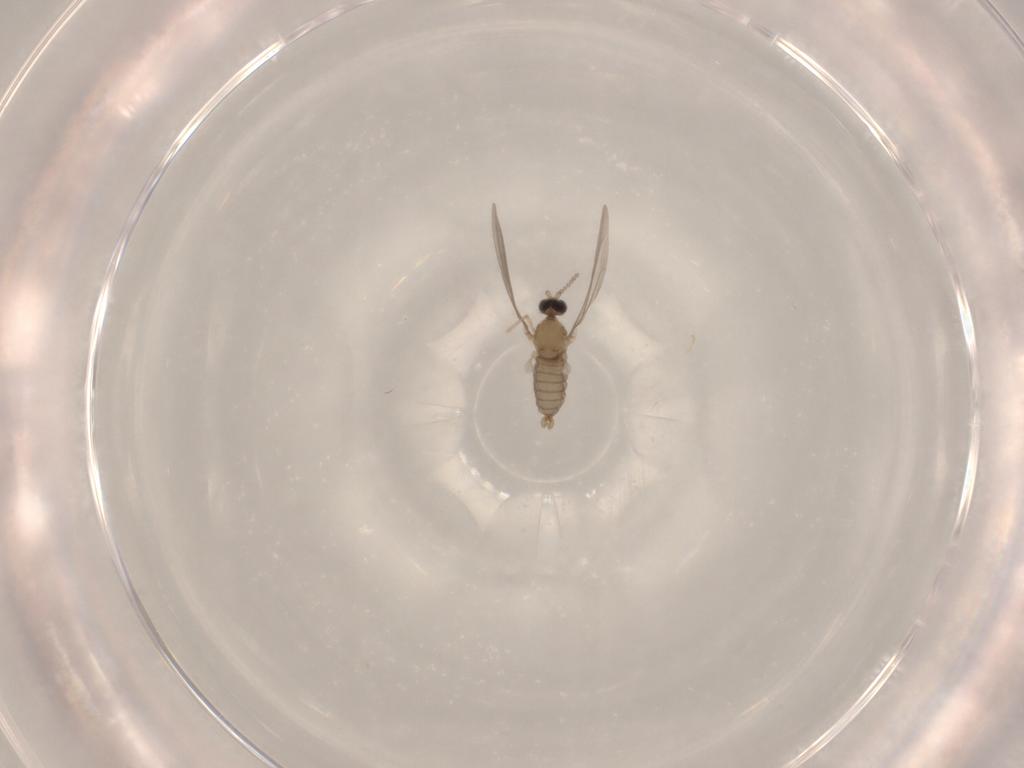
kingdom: Animalia
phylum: Arthropoda
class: Insecta
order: Diptera
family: Cecidomyiidae
